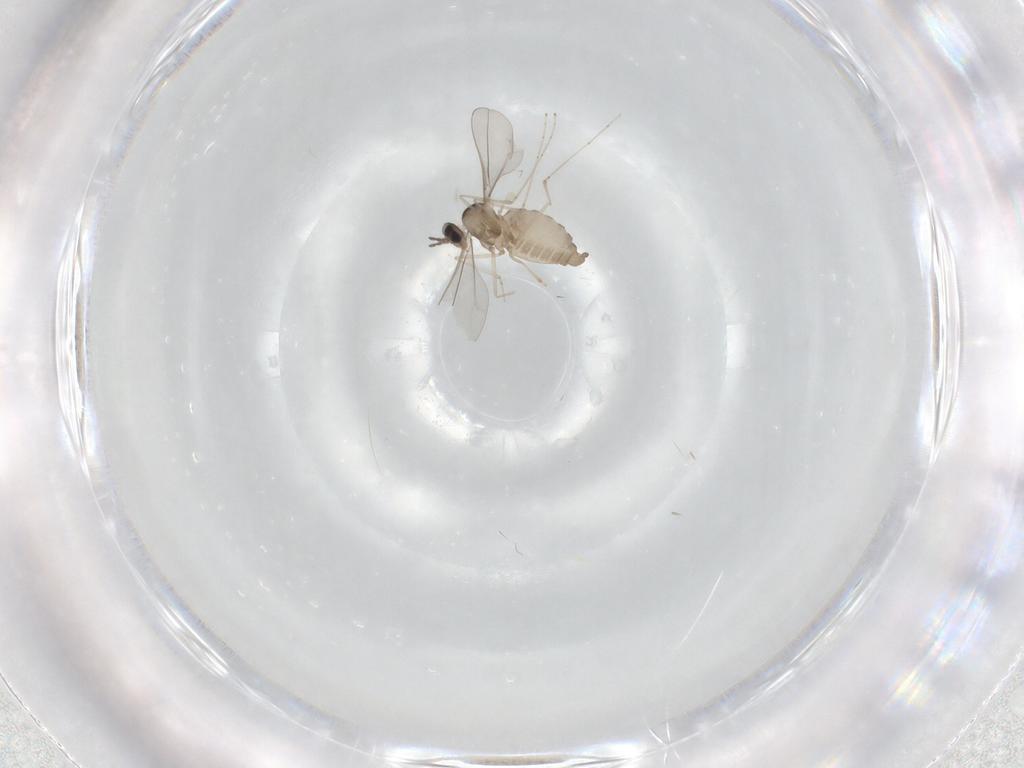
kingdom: Animalia
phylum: Arthropoda
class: Insecta
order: Diptera
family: Cecidomyiidae
